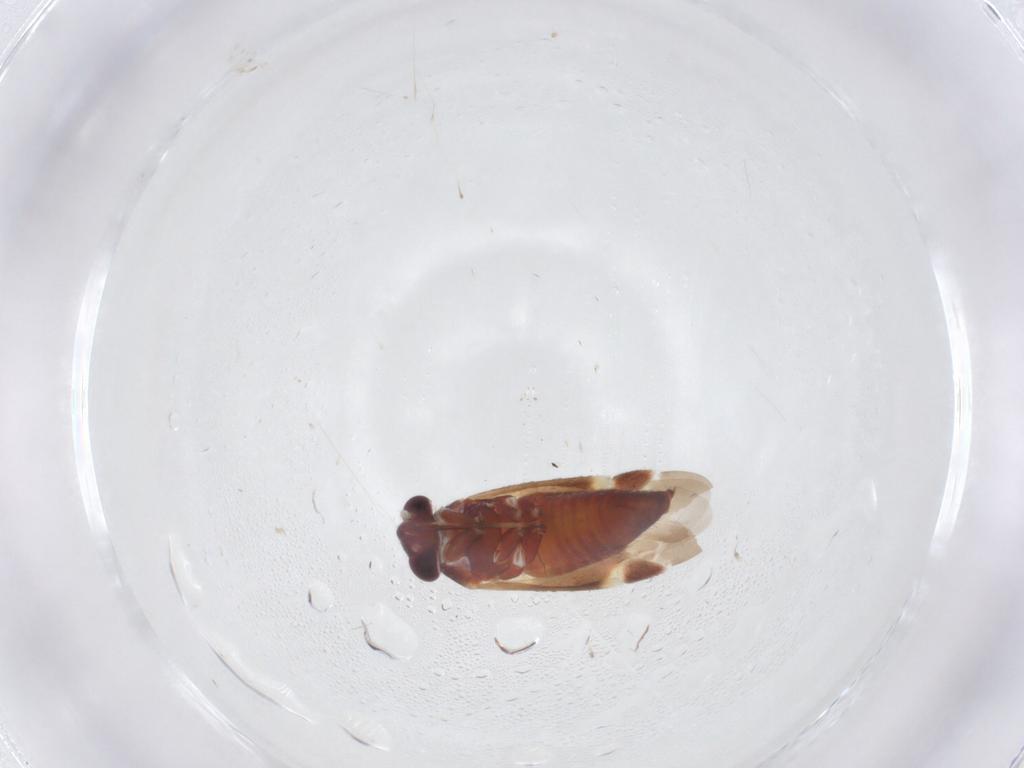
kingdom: Animalia
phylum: Arthropoda
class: Insecta
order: Hemiptera
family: Miridae
